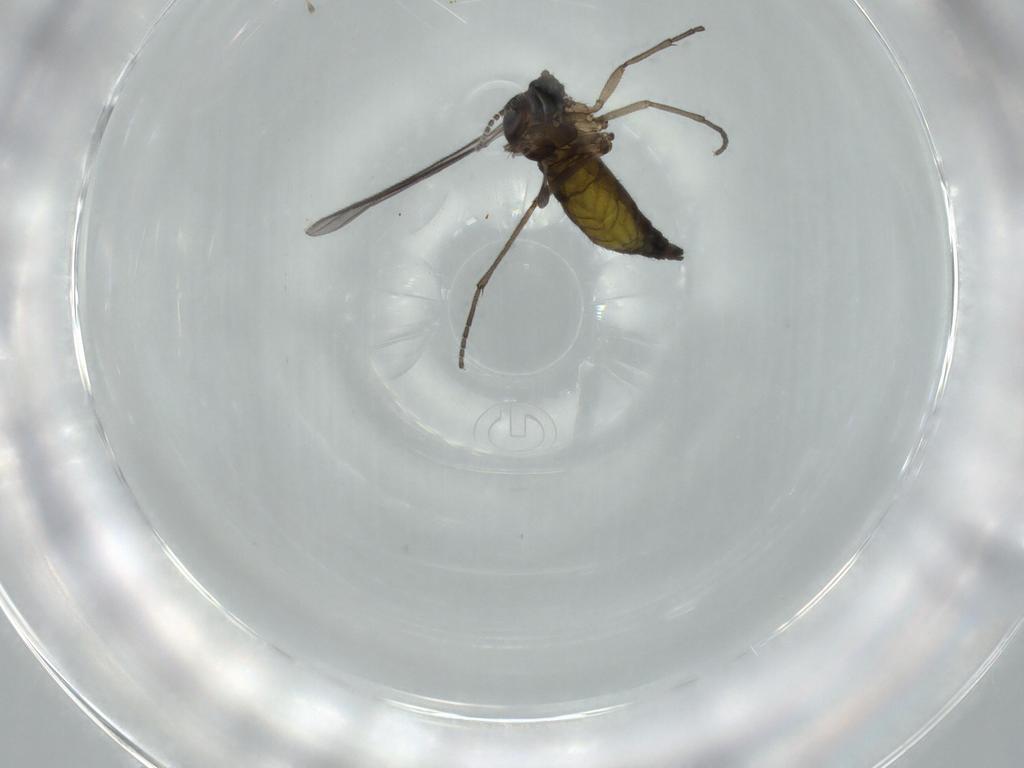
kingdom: Animalia
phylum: Arthropoda
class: Insecta
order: Diptera
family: Sciaridae
